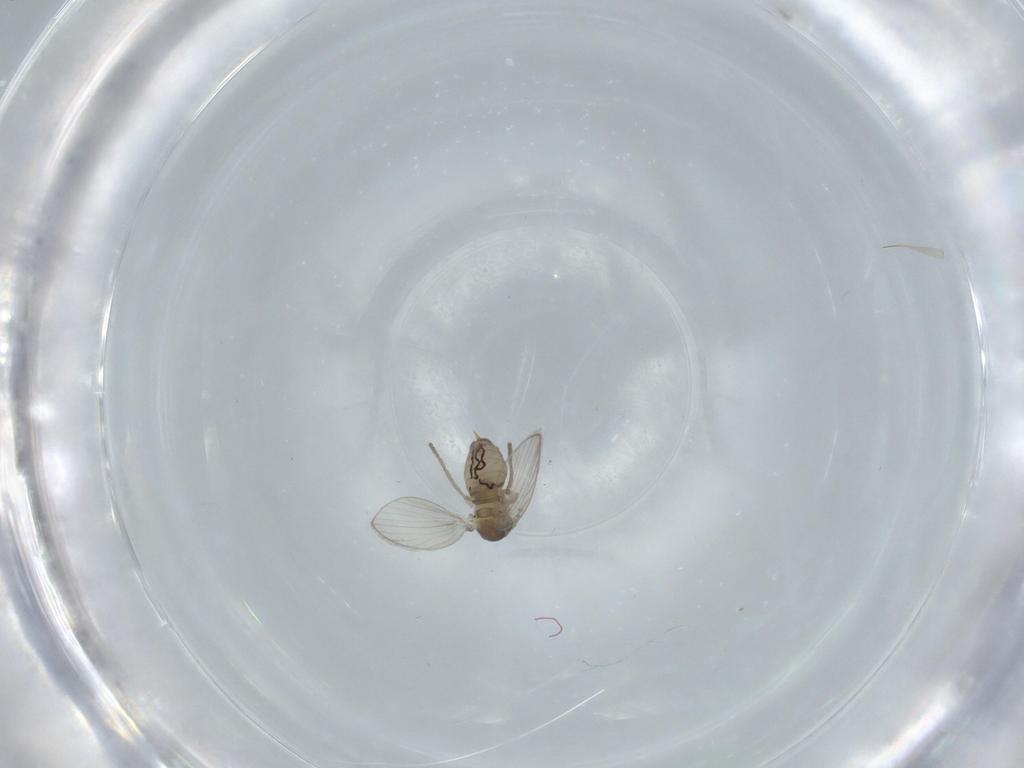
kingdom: Animalia
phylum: Arthropoda
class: Insecta
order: Diptera
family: Psychodidae
